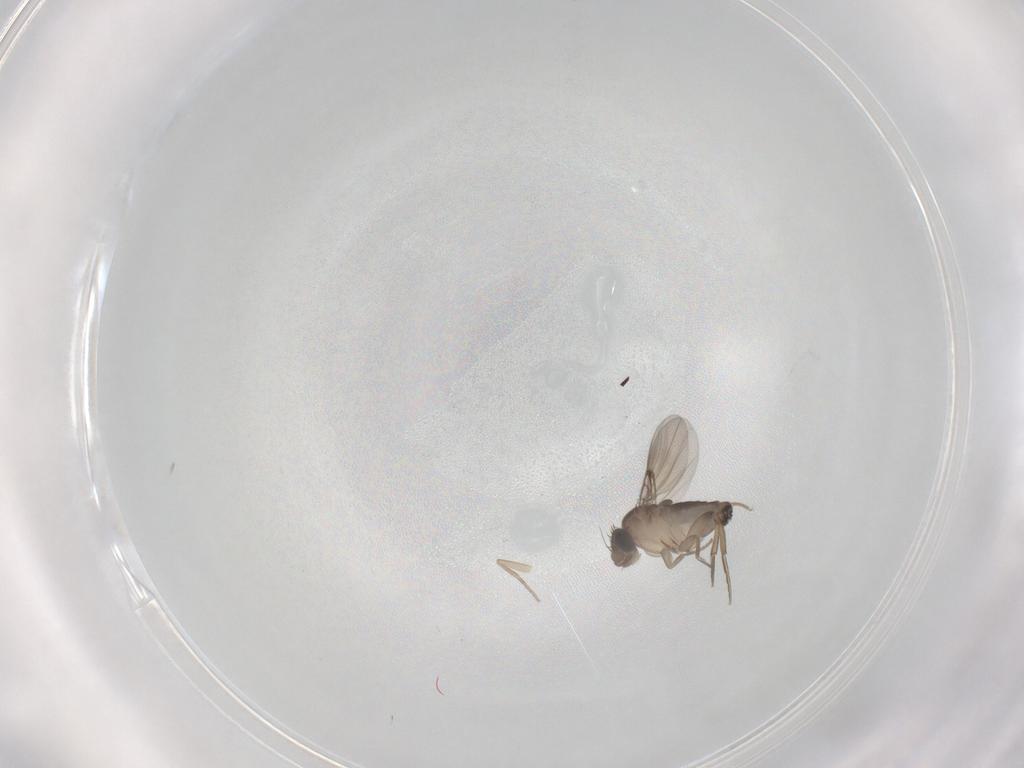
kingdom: Animalia
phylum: Arthropoda
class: Insecta
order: Diptera
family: Phoridae
